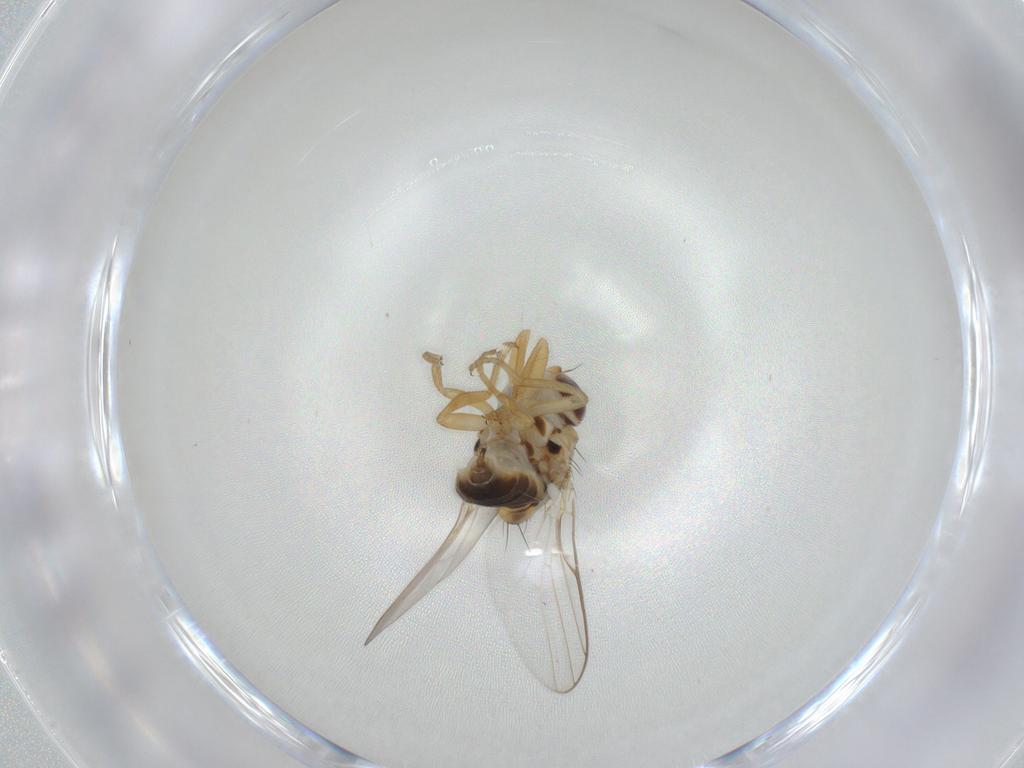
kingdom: Animalia
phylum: Arthropoda
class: Insecta
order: Diptera
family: Chloropidae
